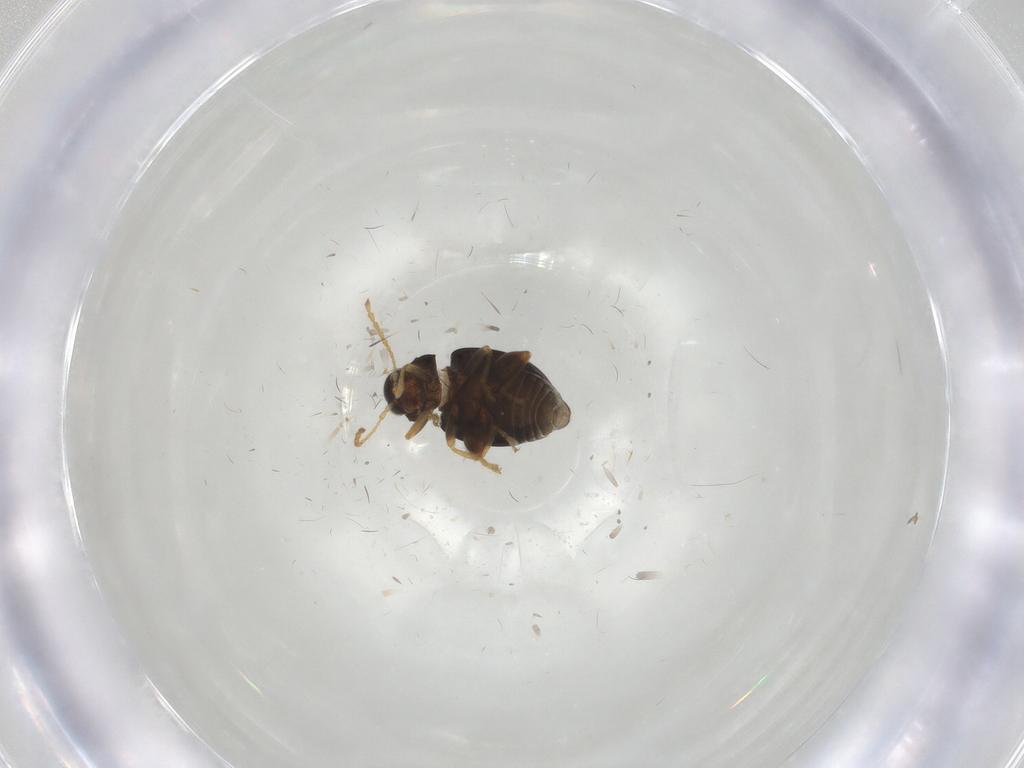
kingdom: Animalia
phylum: Arthropoda
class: Insecta
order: Coleoptera
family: Chrysomelidae
